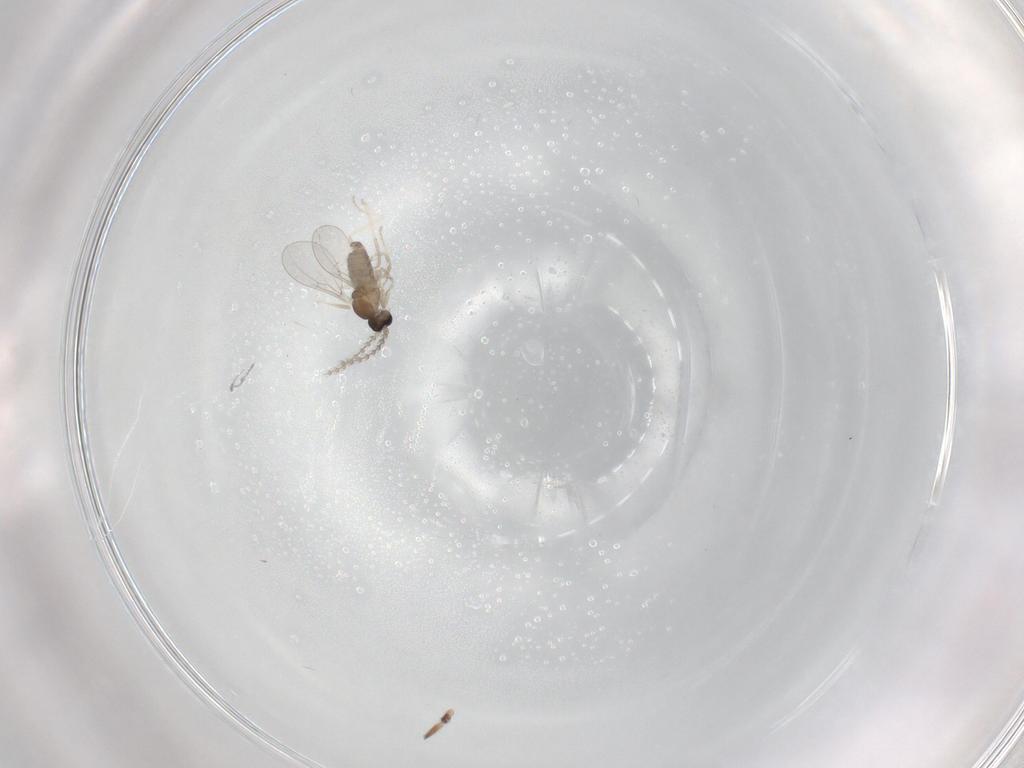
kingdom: Animalia
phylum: Arthropoda
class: Insecta
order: Diptera
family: Cecidomyiidae
